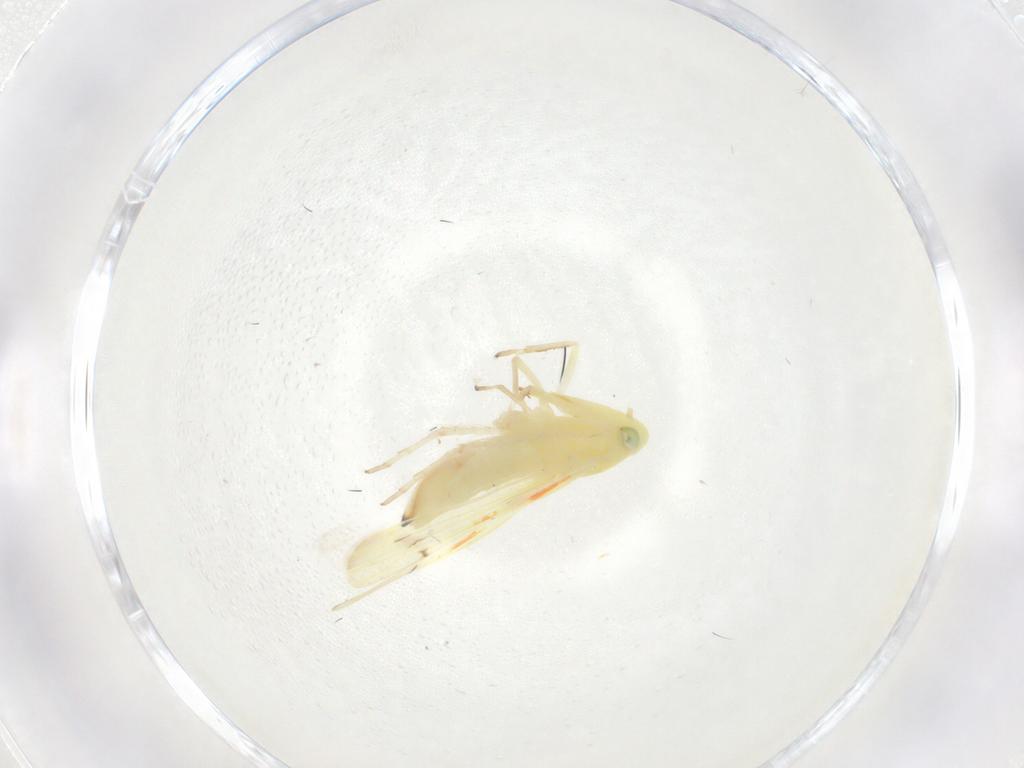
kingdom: Animalia
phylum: Arthropoda
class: Insecta
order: Hemiptera
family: Cicadellidae
